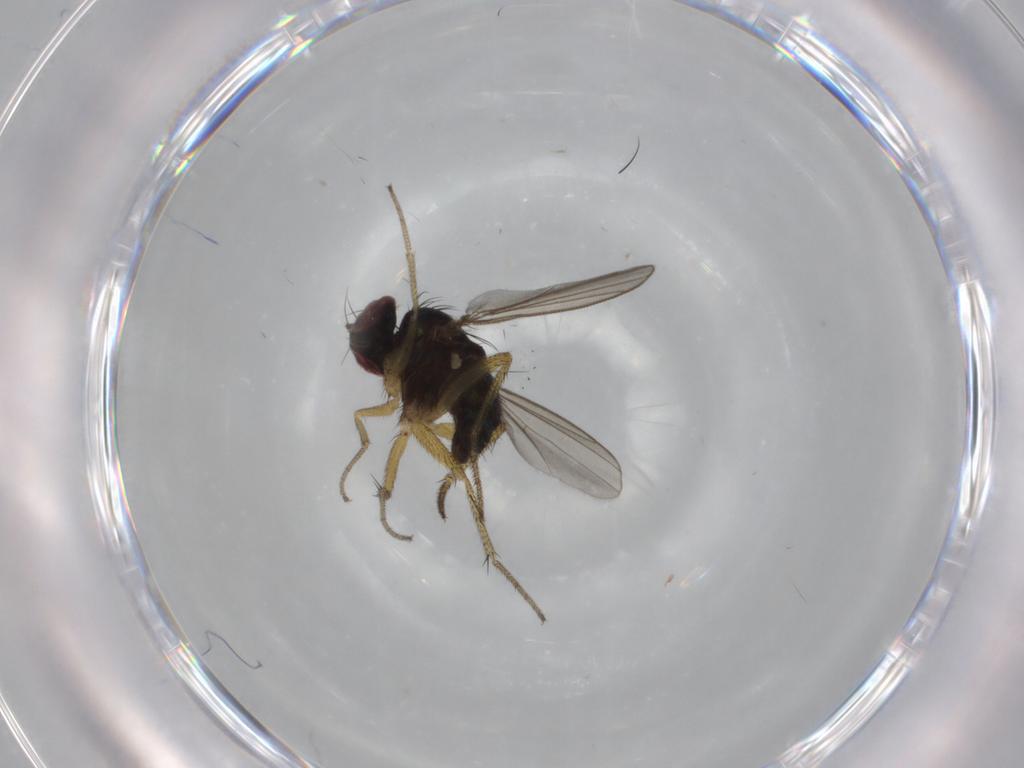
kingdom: Animalia
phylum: Arthropoda
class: Insecta
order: Diptera
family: Dolichopodidae
